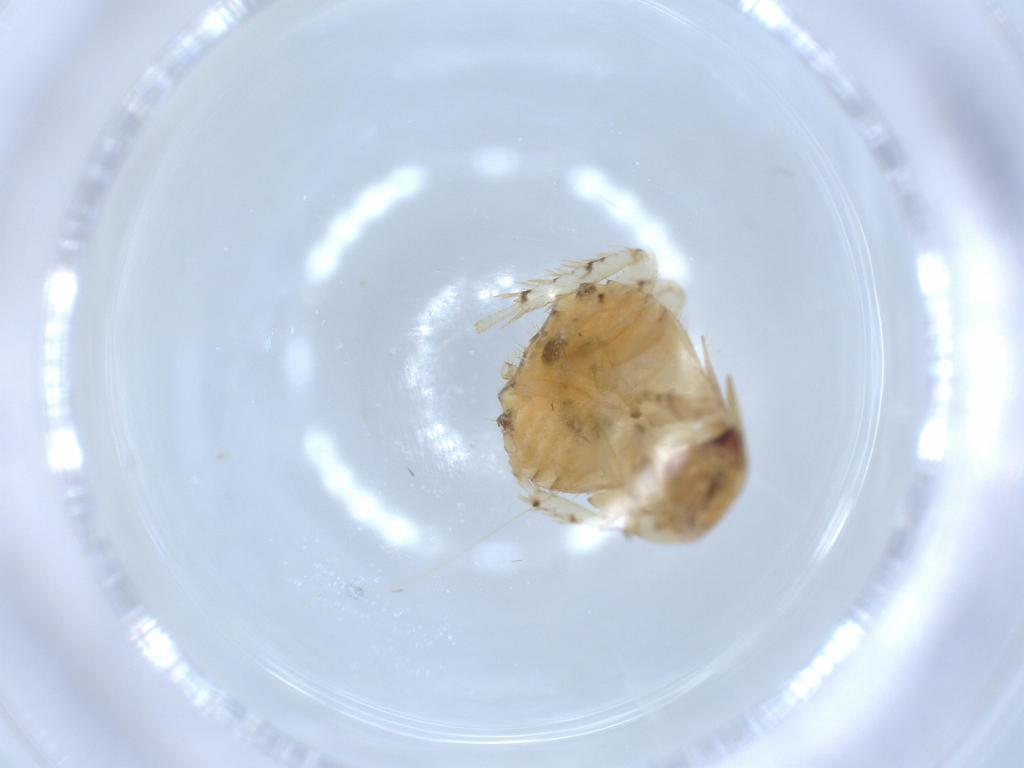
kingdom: Animalia
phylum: Arthropoda
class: Insecta
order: Blattodea
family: Ectobiidae
